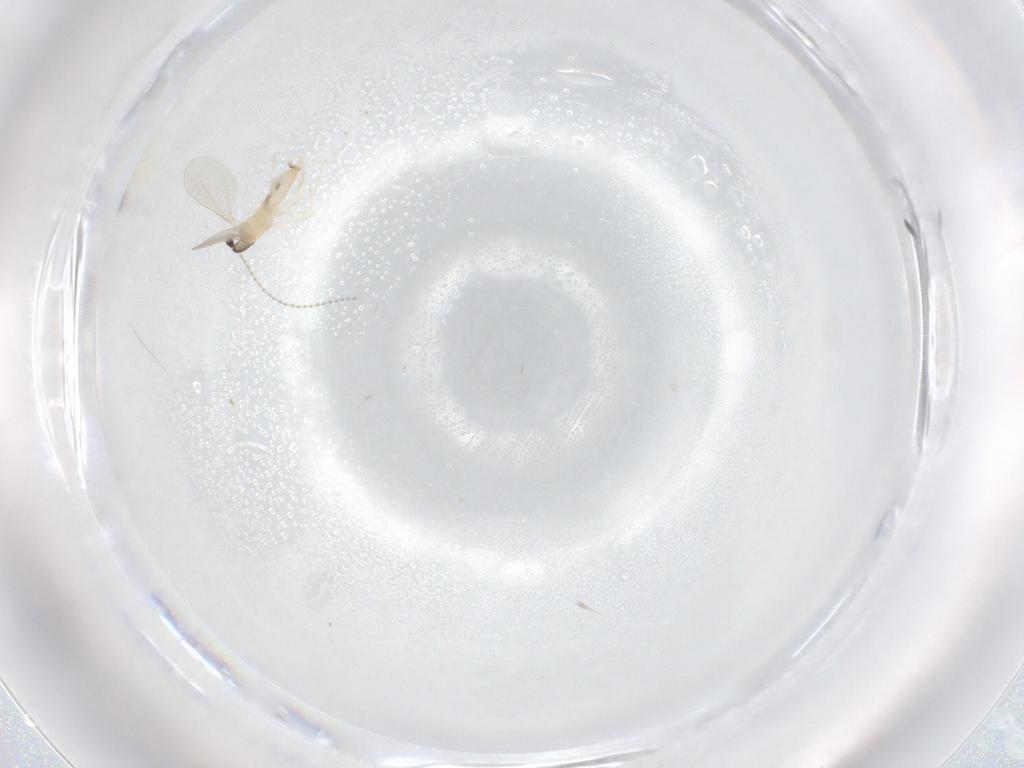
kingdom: Animalia
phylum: Arthropoda
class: Insecta
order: Diptera
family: Cecidomyiidae
